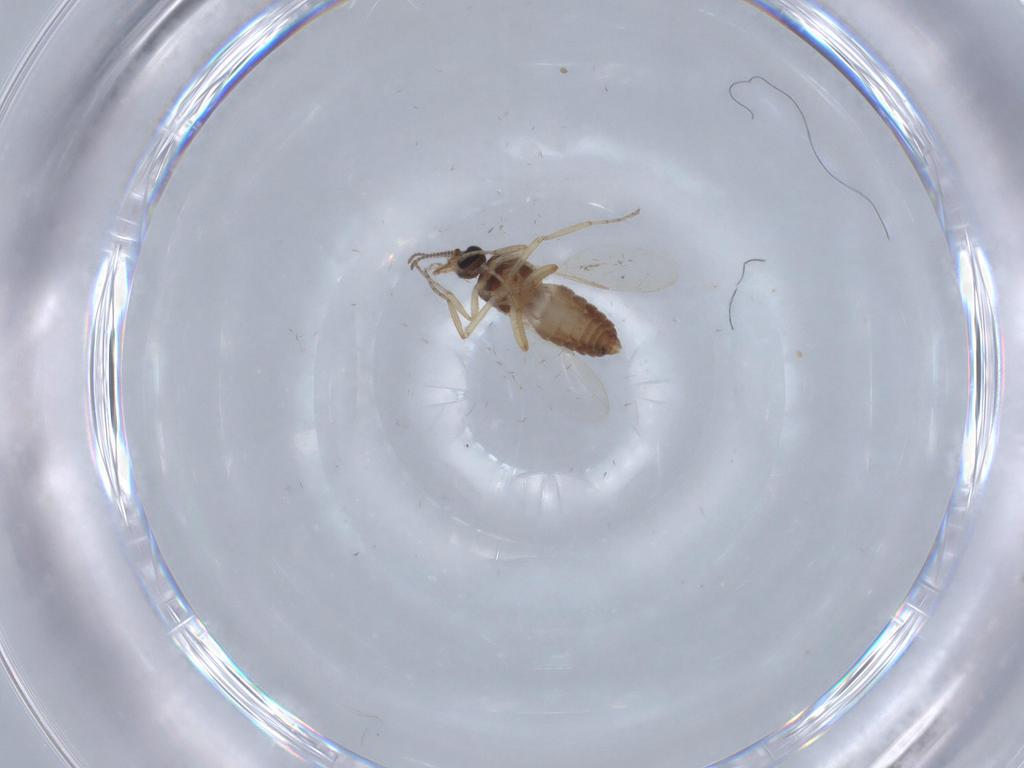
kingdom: Animalia
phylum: Arthropoda
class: Insecta
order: Diptera
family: Ceratopogonidae
